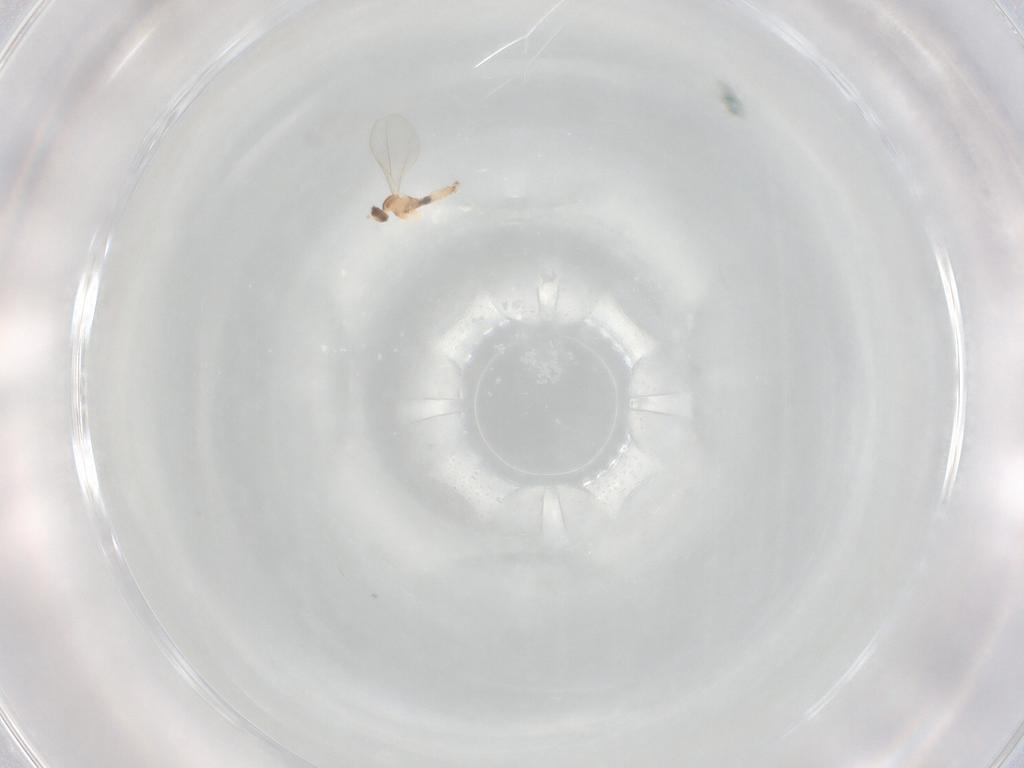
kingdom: Animalia
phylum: Arthropoda
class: Insecta
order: Diptera
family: Cecidomyiidae
